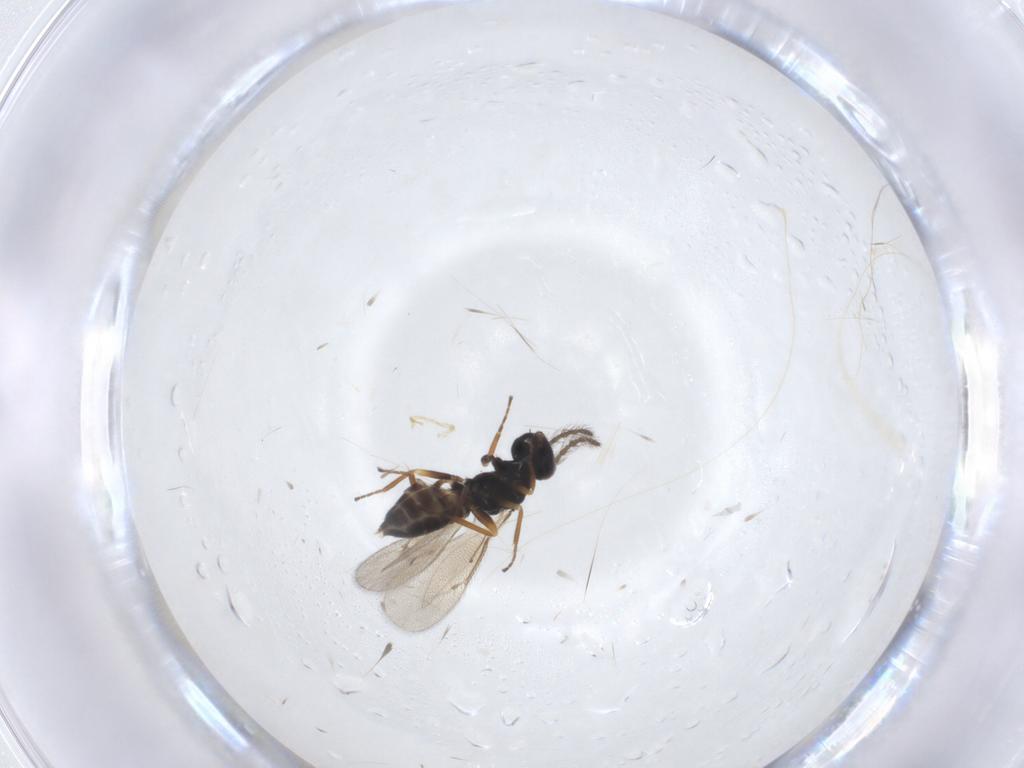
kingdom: Animalia
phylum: Arthropoda
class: Insecta
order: Hymenoptera
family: Eulophidae
